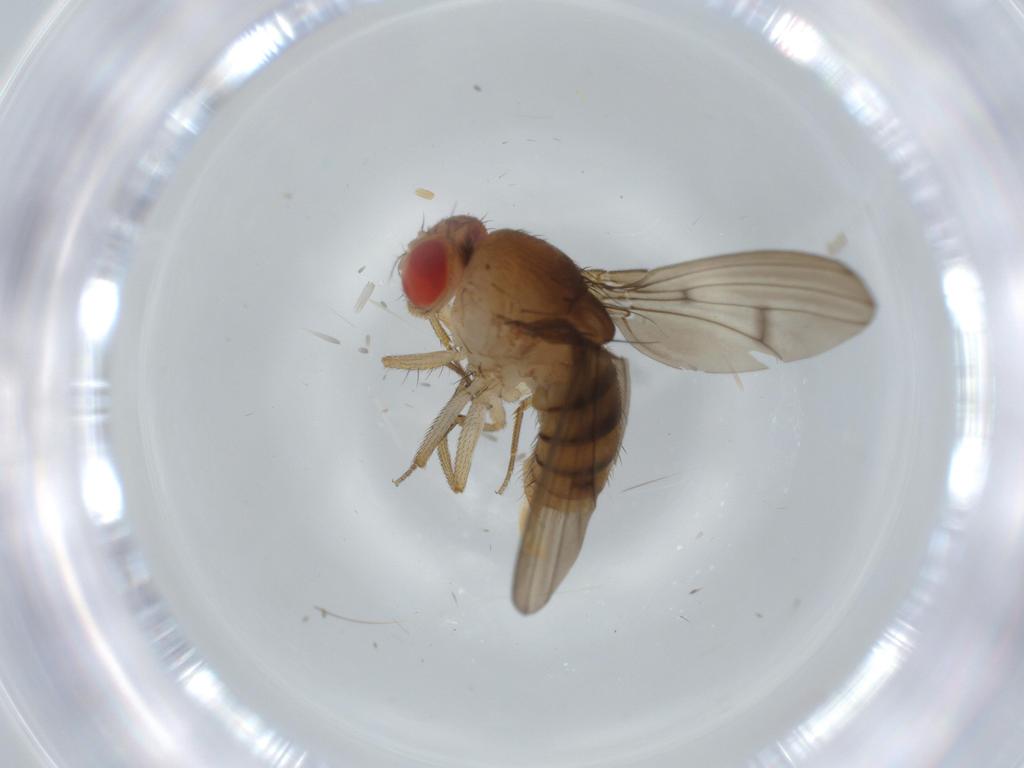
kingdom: Animalia
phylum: Arthropoda
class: Insecta
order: Diptera
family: Drosophilidae
